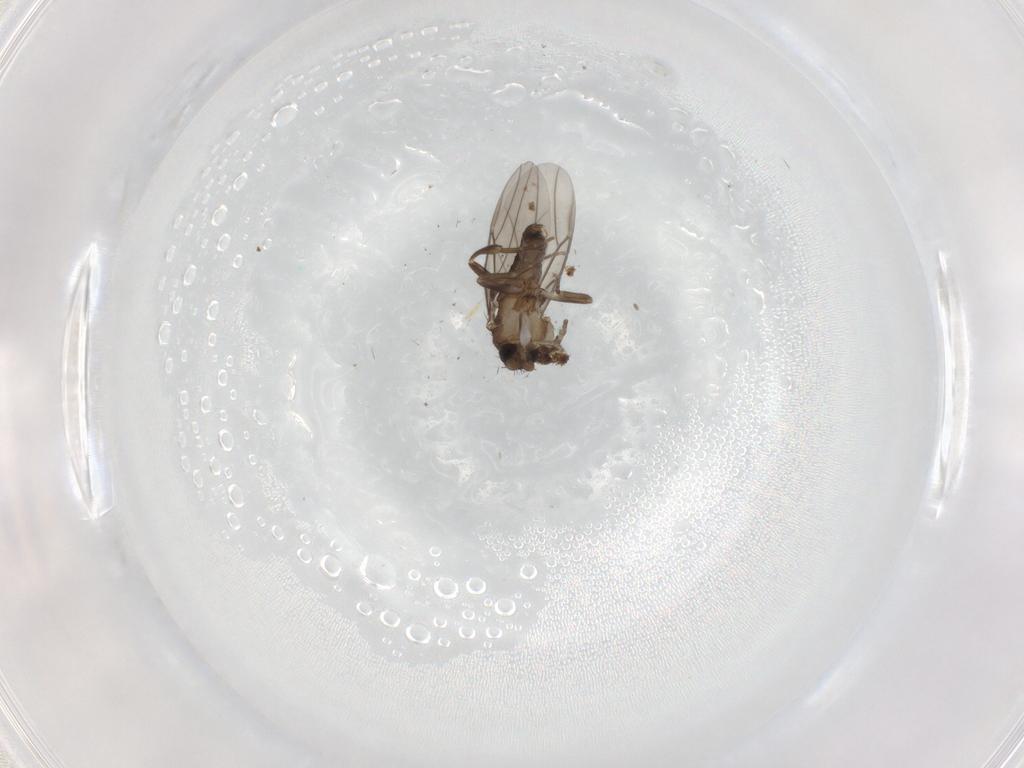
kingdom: Animalia
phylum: Arthropoda
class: Insecta
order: Diptera
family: Phoridae
